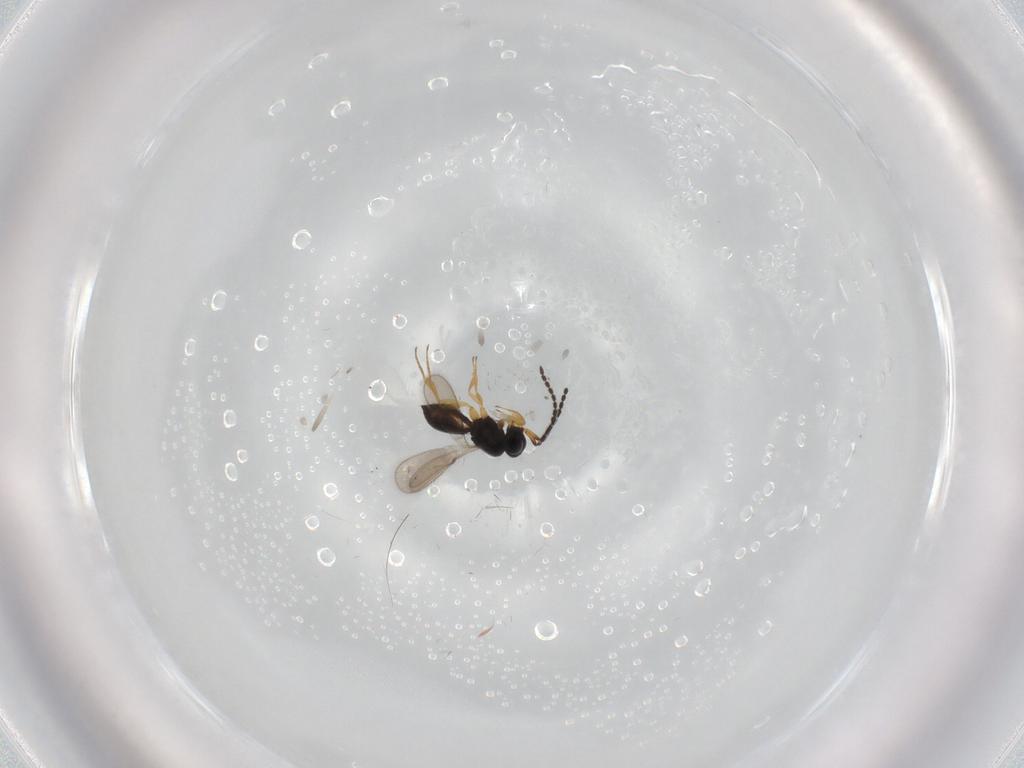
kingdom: Animalia
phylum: Arthropoda
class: Insecta
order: Hymenoptera
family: Scelionidae
